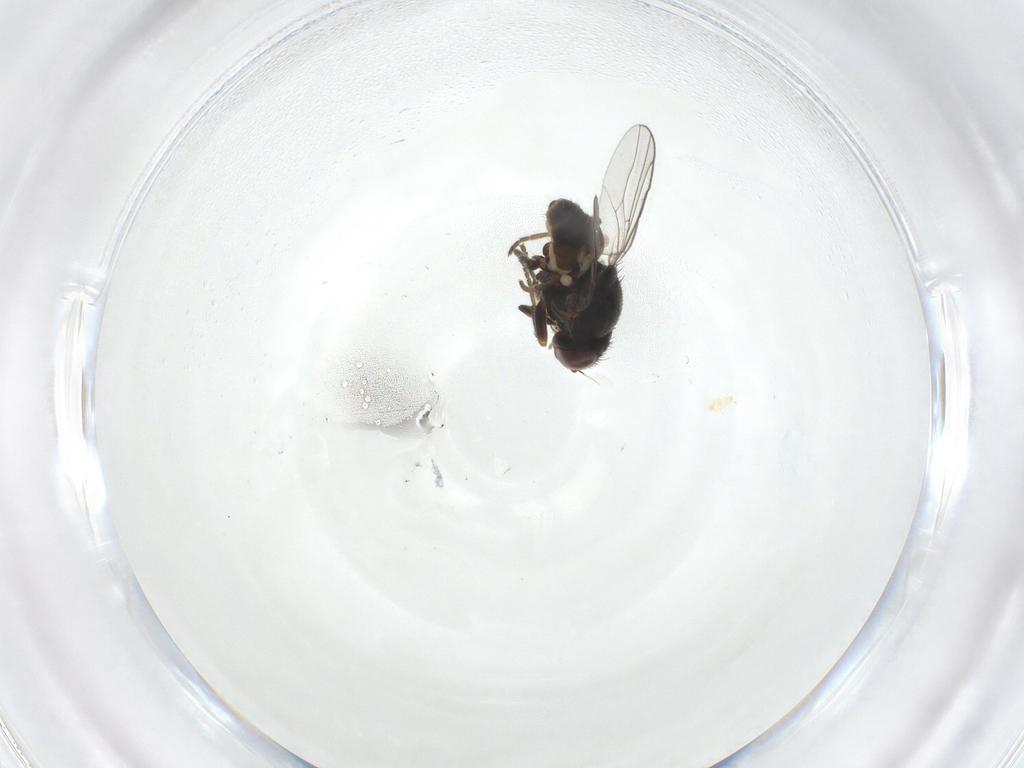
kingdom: Animalia
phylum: Arthropoda
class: Insecta
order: Diptera
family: Chloropidae
